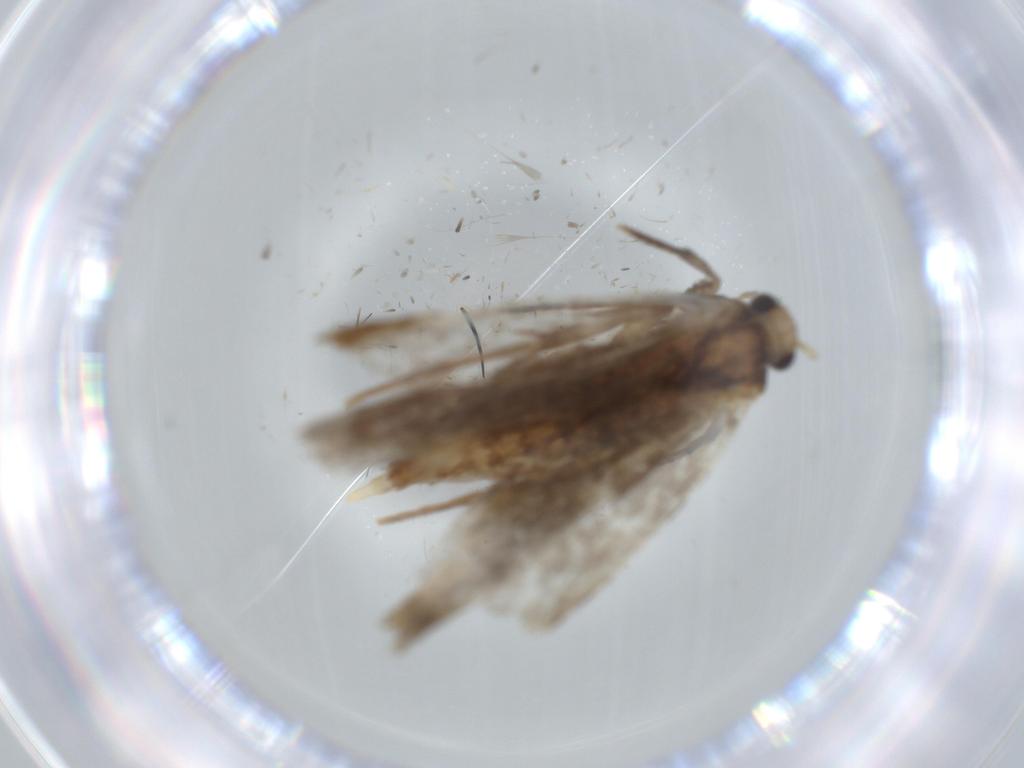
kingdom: Animalia
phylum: Arthropoda
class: Insecta
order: Lepidoptera
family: Tineidae
